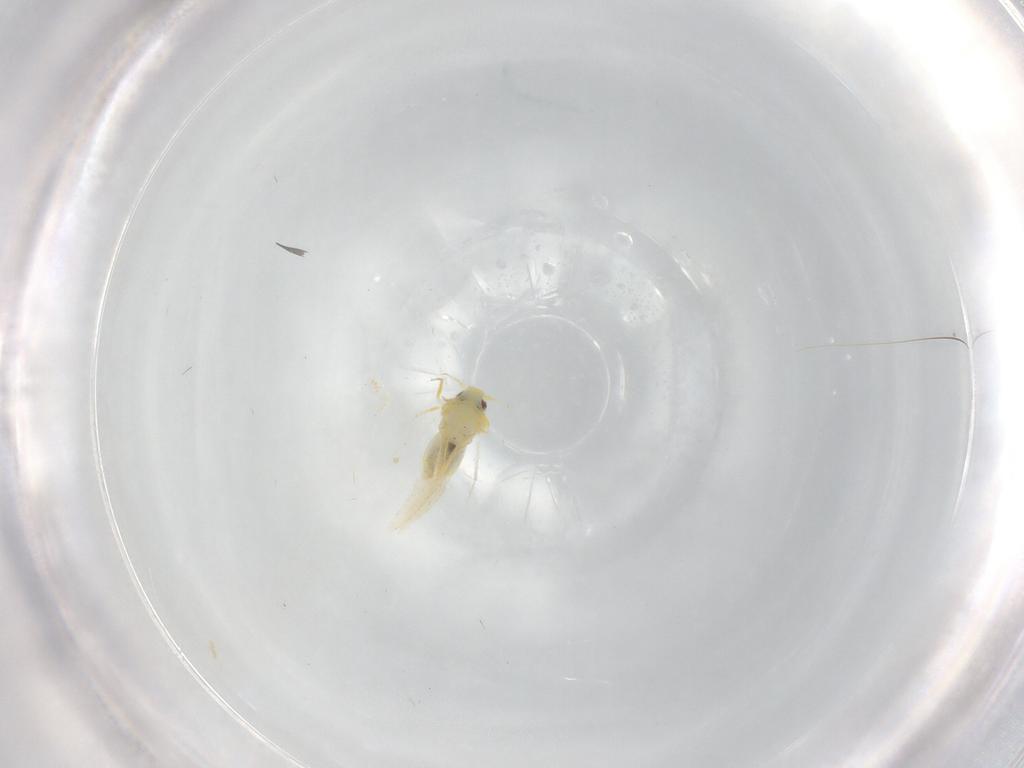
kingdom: Animalia
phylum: Arthropoda
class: Insecta
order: Hemiptera
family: Aleyrodidae
